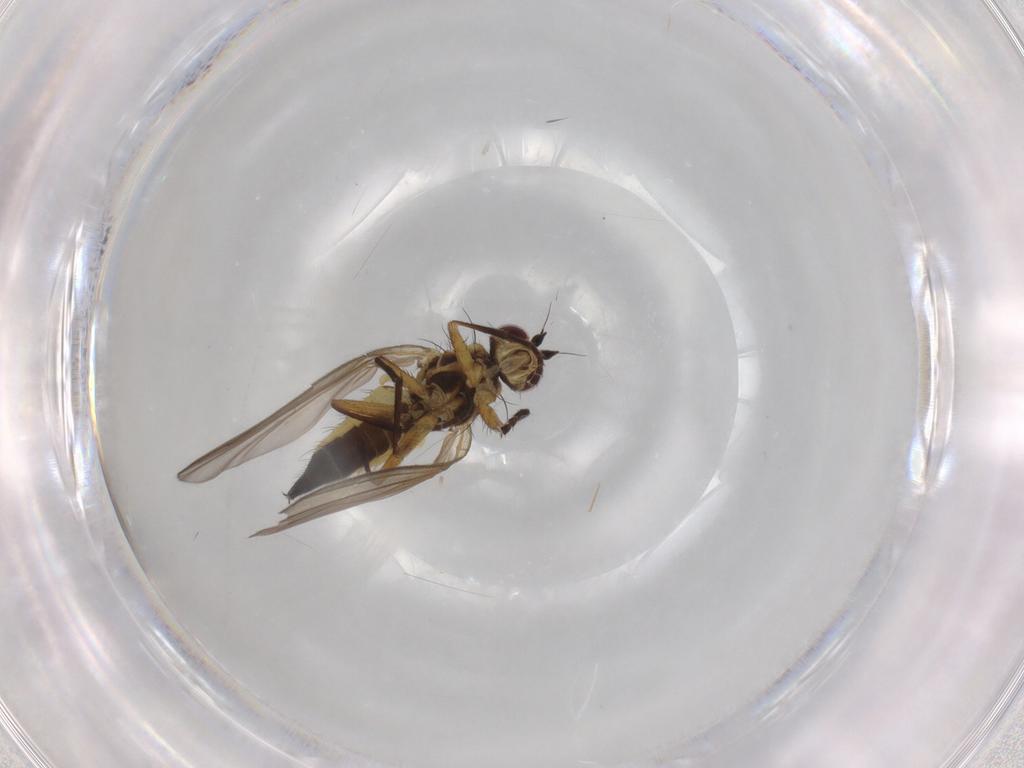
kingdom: Animalia
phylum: Arthropoda
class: Insecta
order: Diptera
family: Agromyzidae
